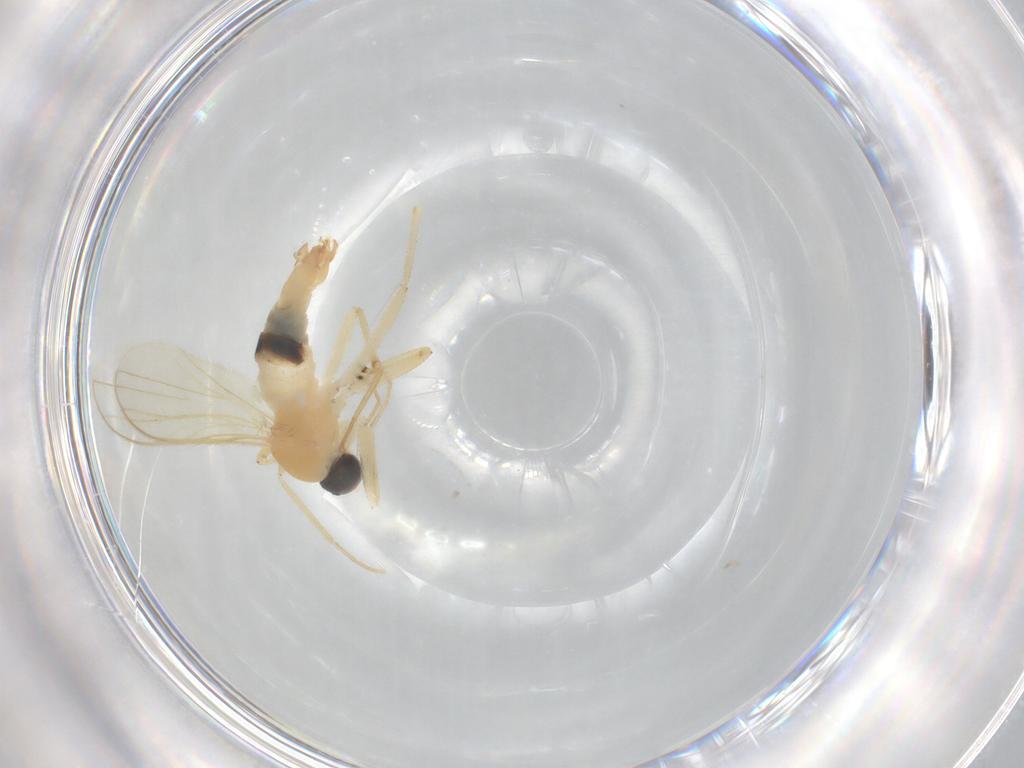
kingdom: Animalia
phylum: Arthropoda
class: Insecta
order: Diptera
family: Hybotidae
